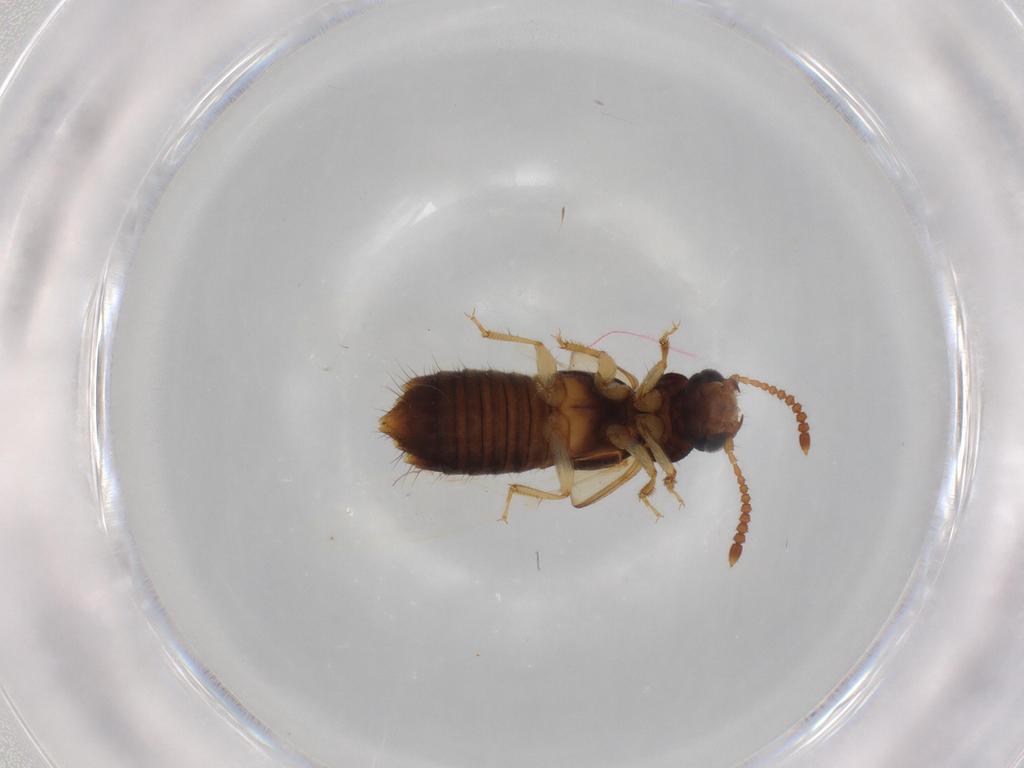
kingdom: Animalia
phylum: Arthropoda
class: Insecta
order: Coleoptera
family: Staphylinidae
